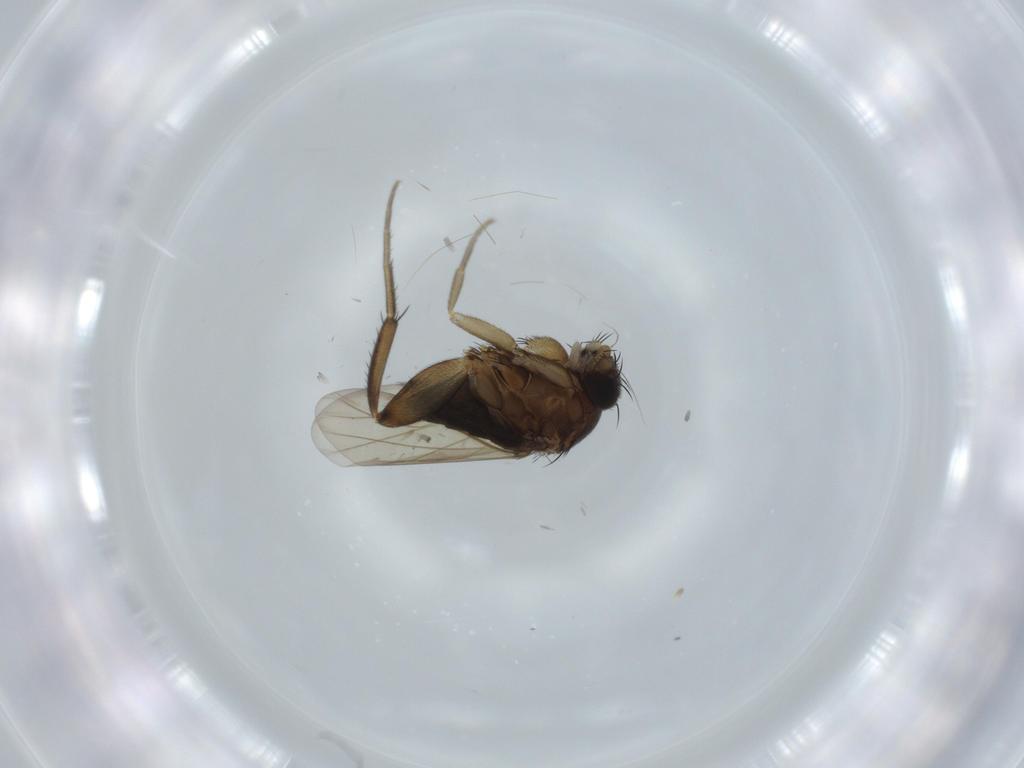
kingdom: Animalia
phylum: Arthropoda
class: Insecta
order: Diptera
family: Phoridae
